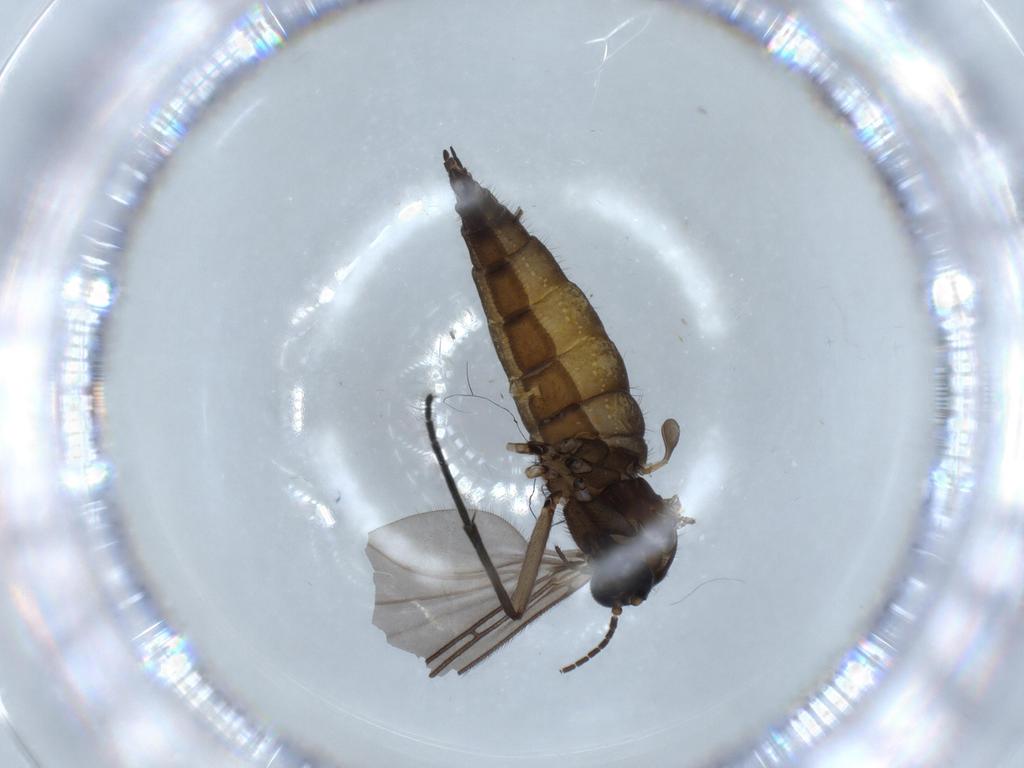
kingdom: Animalia
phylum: Arthropoda
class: Insecta
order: Diptera
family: Sciaridae
